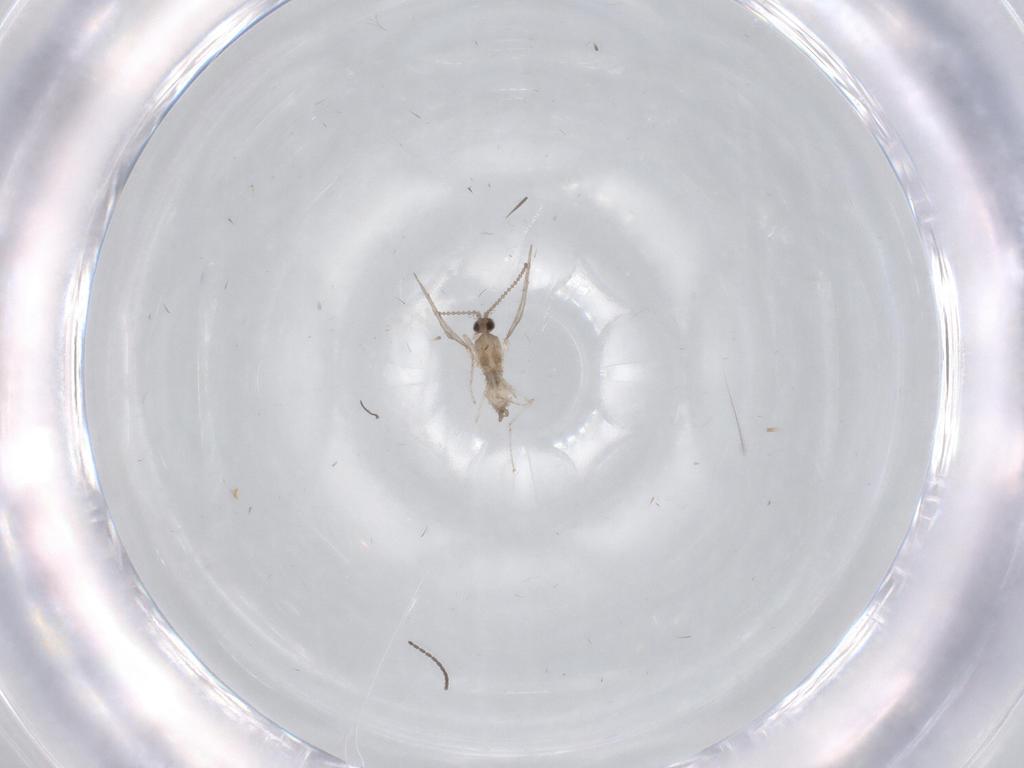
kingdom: Animalia
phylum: Arthropoda
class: Insecta
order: Diptera
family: Cecidomyiidae
